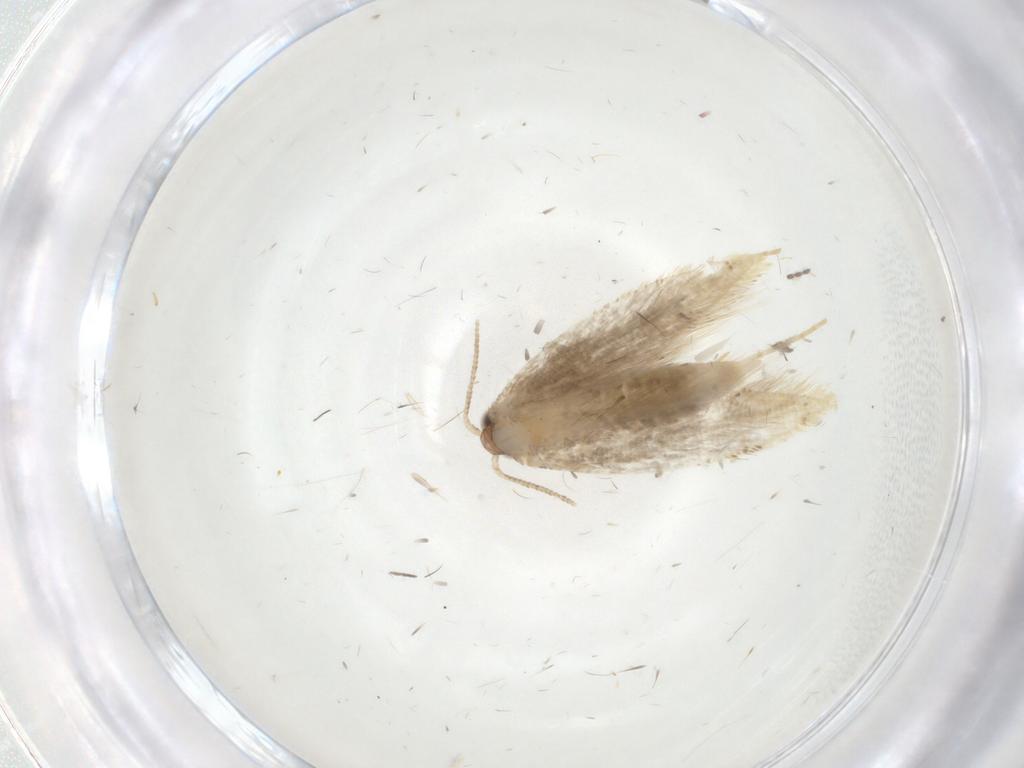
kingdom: Animalia
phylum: Arthropoda
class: Insecta
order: Lepidoptera
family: Tineidae
